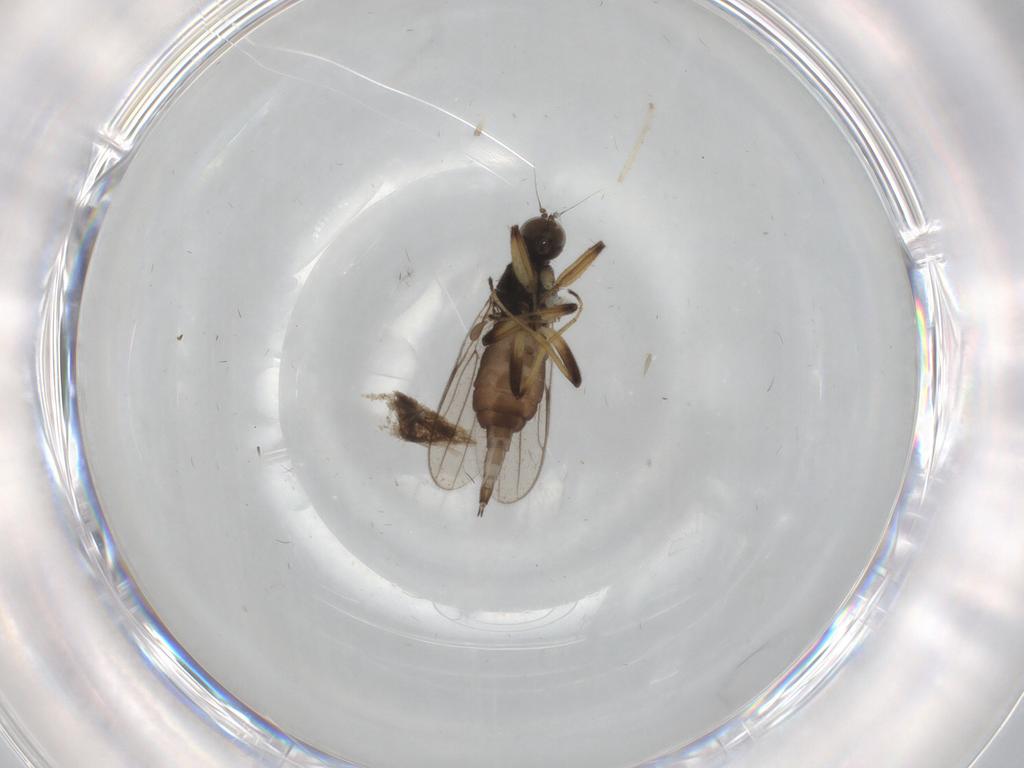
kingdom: Animalia
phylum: Arthropoda
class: Insecta
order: Diptera
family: Hybotidae
